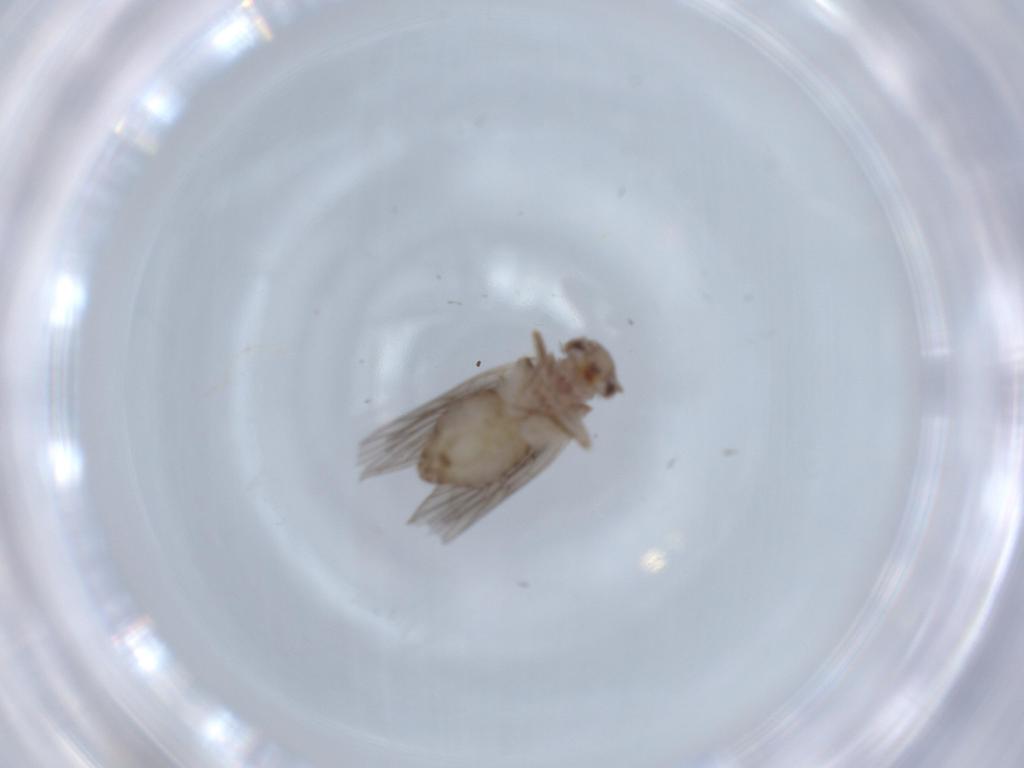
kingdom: Animalia
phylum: Arthropoda
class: Insecta
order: Psocodea
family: Lepidopsocidae
